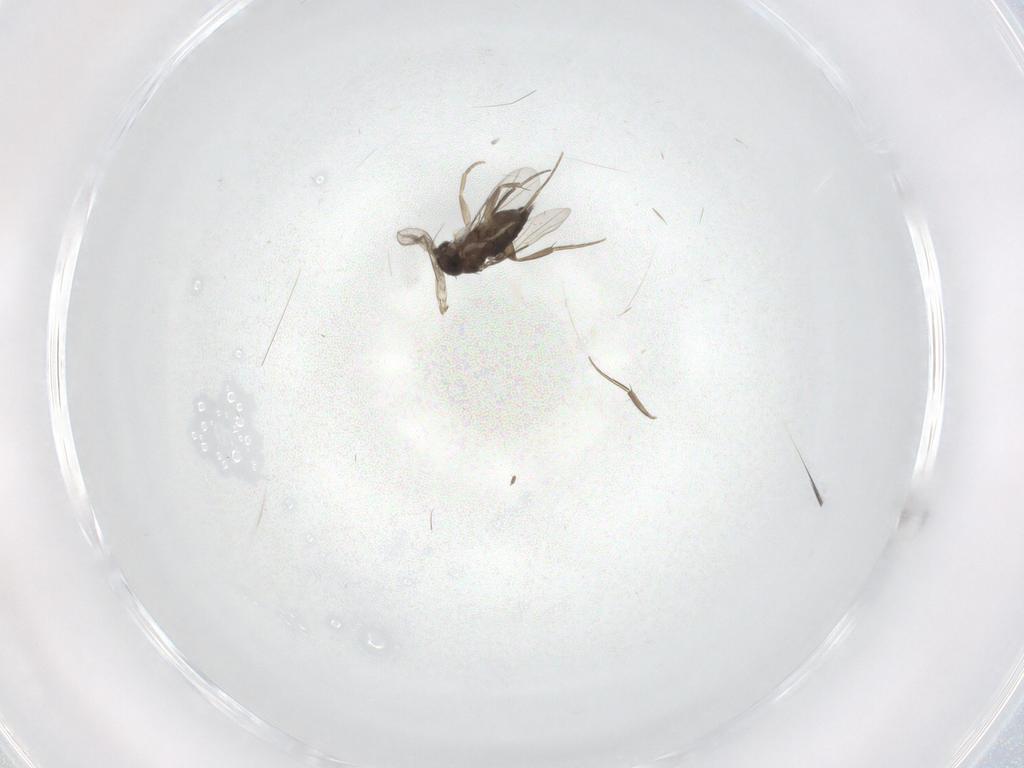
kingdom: Animalia
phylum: Arthropoda
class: Insecta
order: Diptera
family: Phoridae
